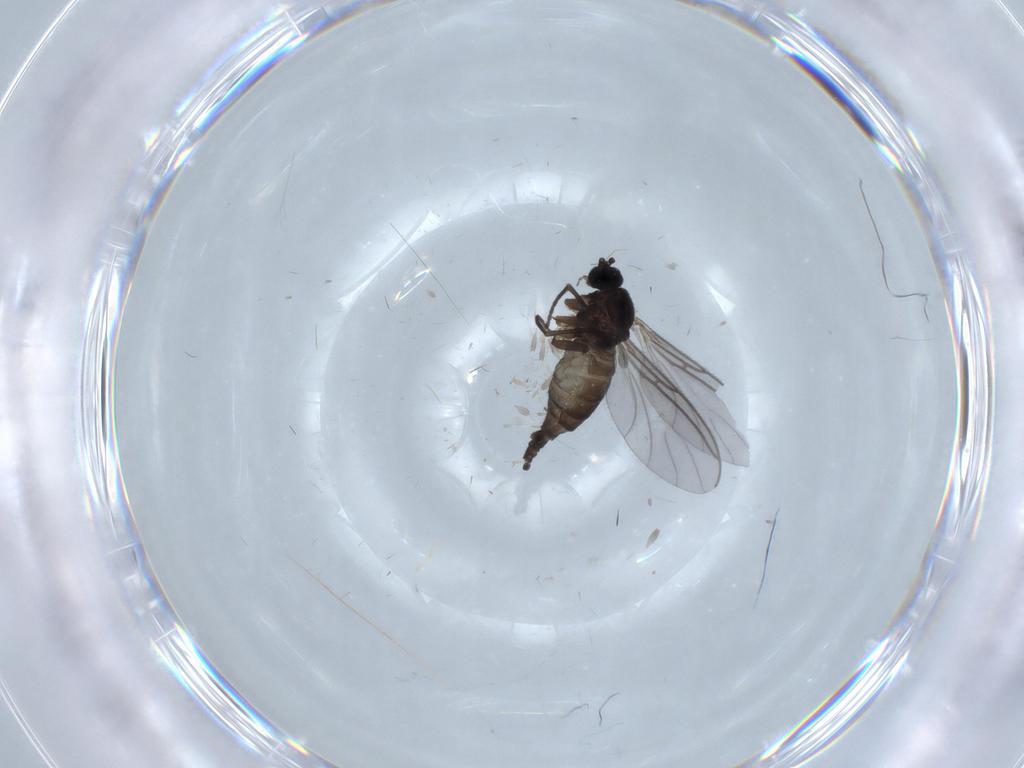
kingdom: Animalia
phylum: Arthropoda
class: Insecta
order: Diptera
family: Sciaridae
